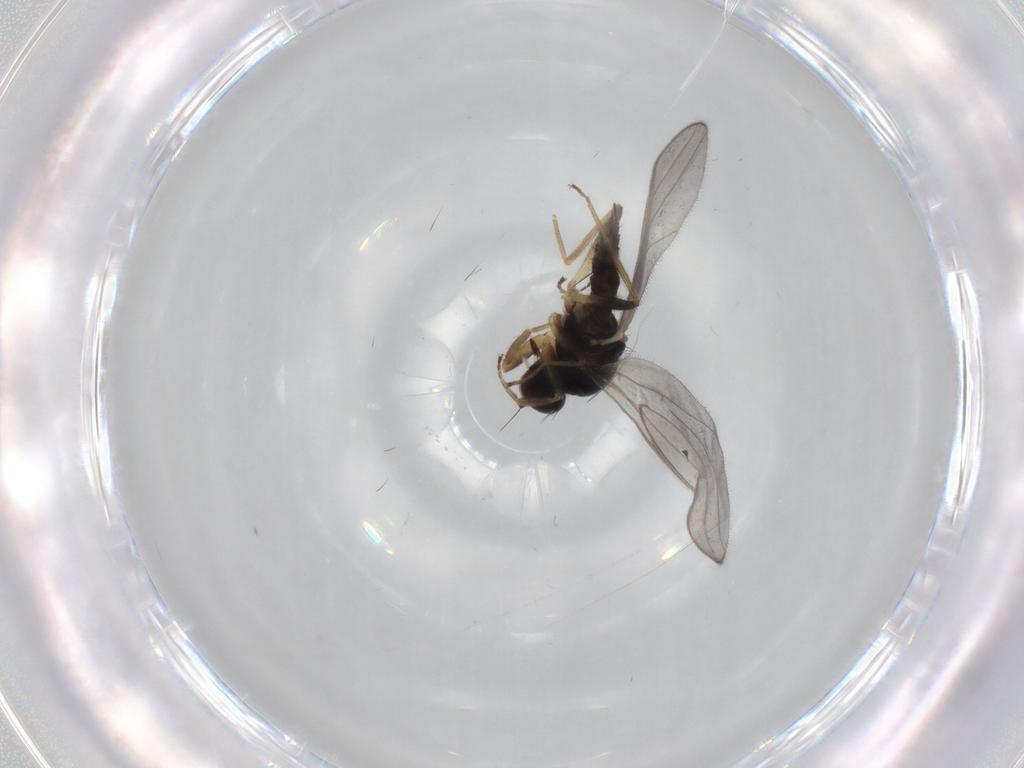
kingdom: Animalia
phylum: Arthropoda
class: Insecta
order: Diptera
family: Hybotidae
